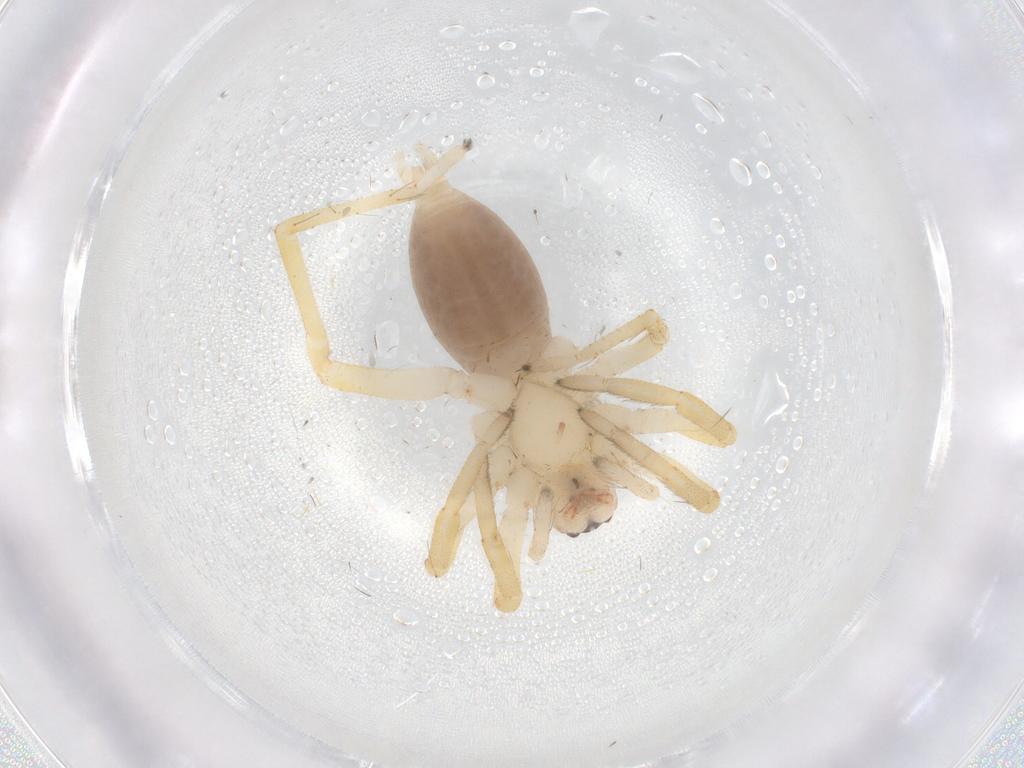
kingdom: Animalia
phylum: Arthropoda
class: Arachnida
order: Araneae
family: Clubionidae
